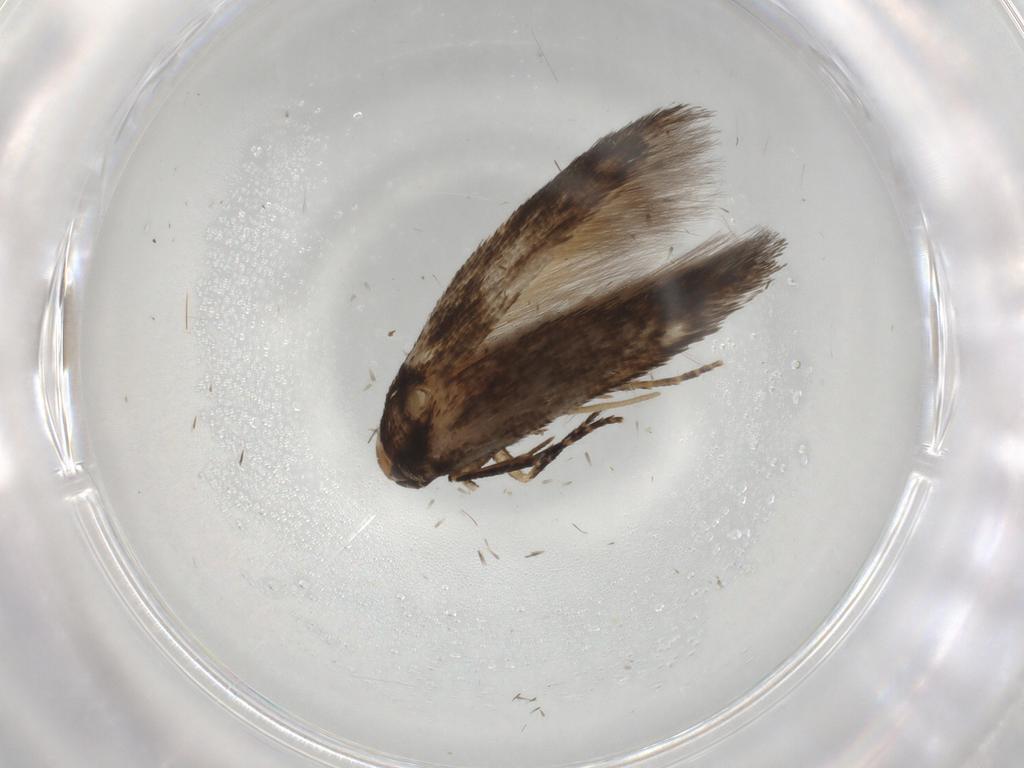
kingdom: Animalia
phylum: Arthropoda
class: Insecta
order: Lepidoptera
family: Cosmopterigidae
